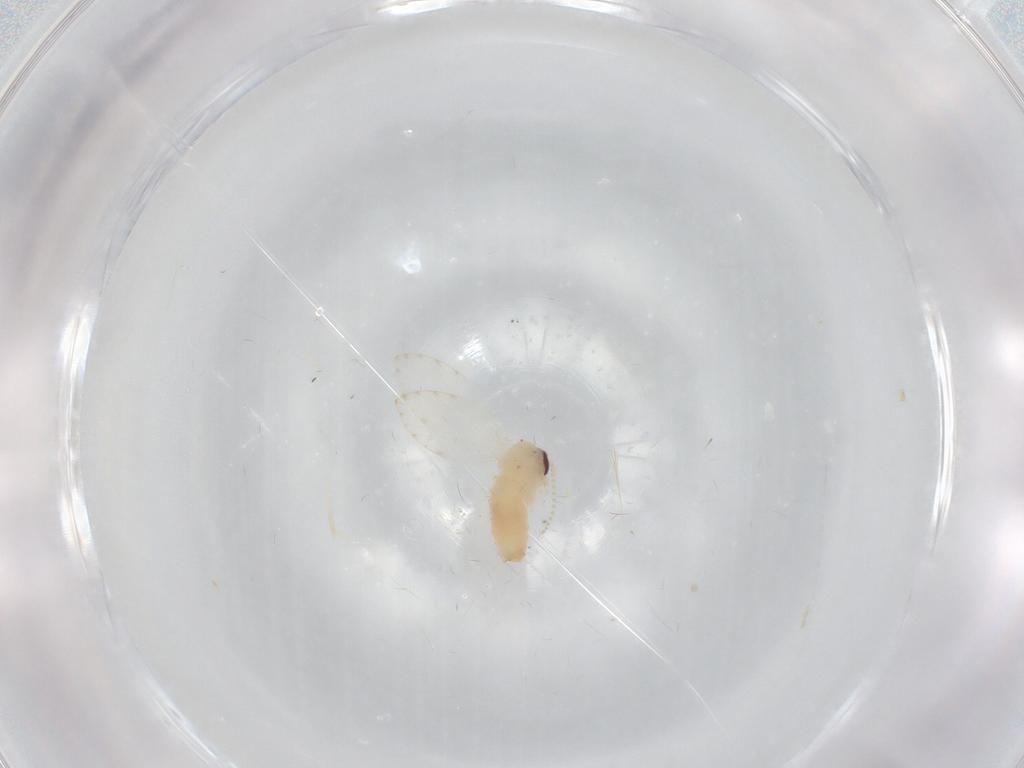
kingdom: Animalia
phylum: Arthropoda
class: Insecta
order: Diptera
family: Psychodidae
